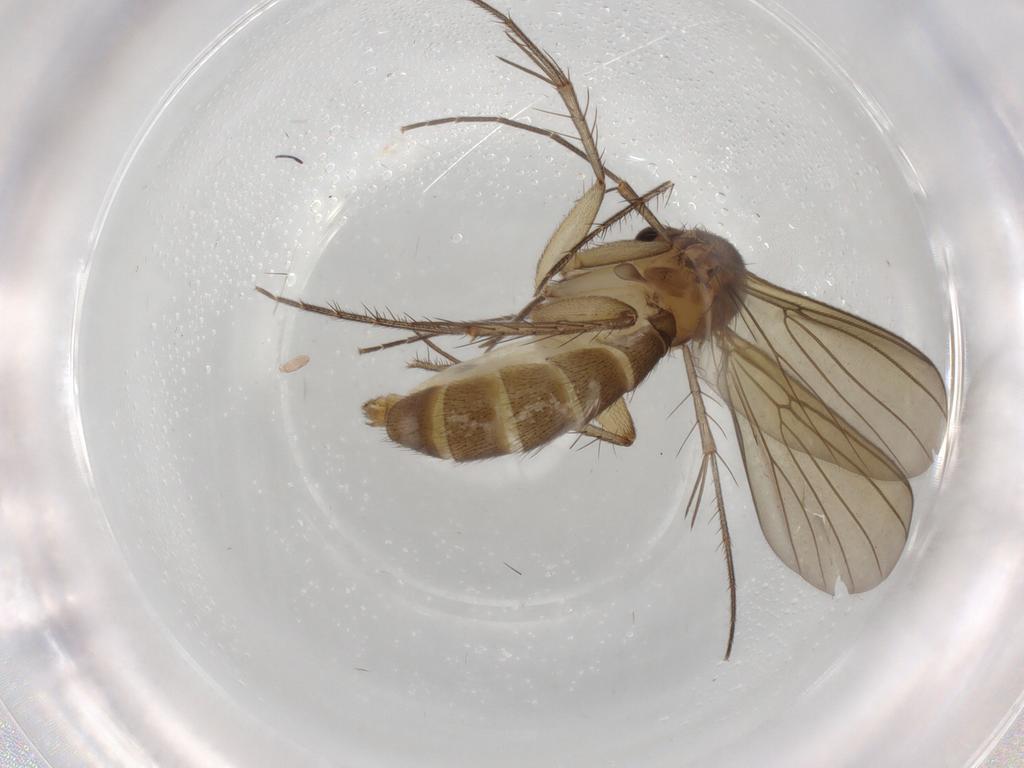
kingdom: Animalia
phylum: Arthropoda
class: Insecta
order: Diptera
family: Mycetophilidae
